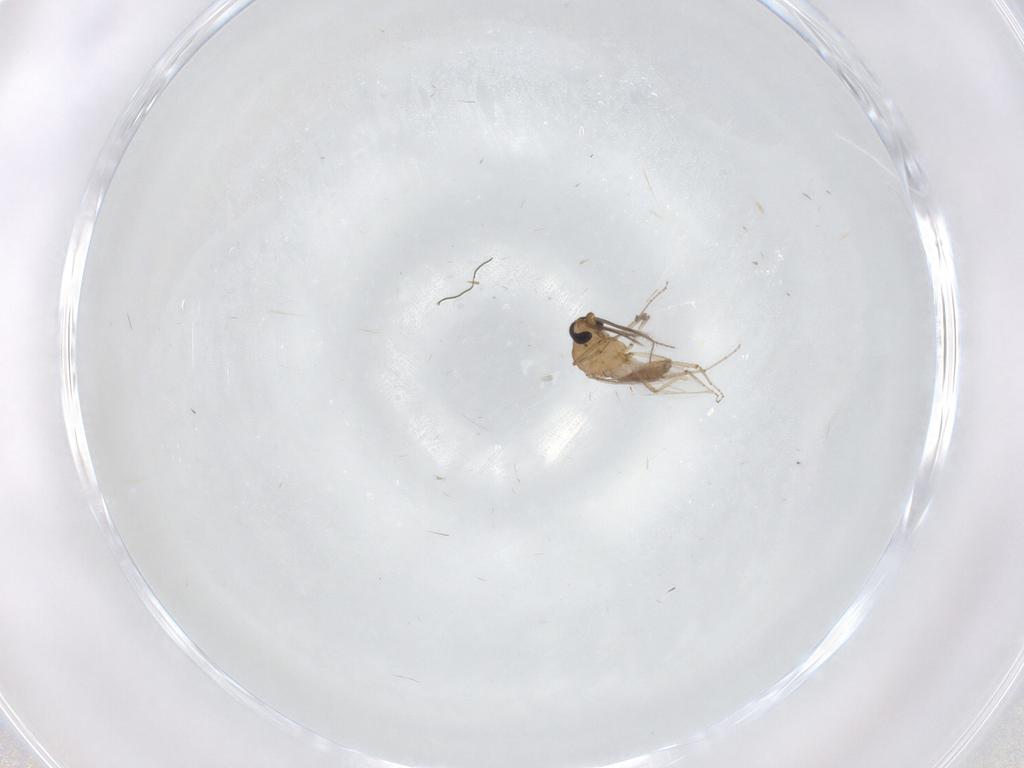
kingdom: Animalia
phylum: Arthropoda
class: Insecta
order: Diptera
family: Ceratopogonidae
